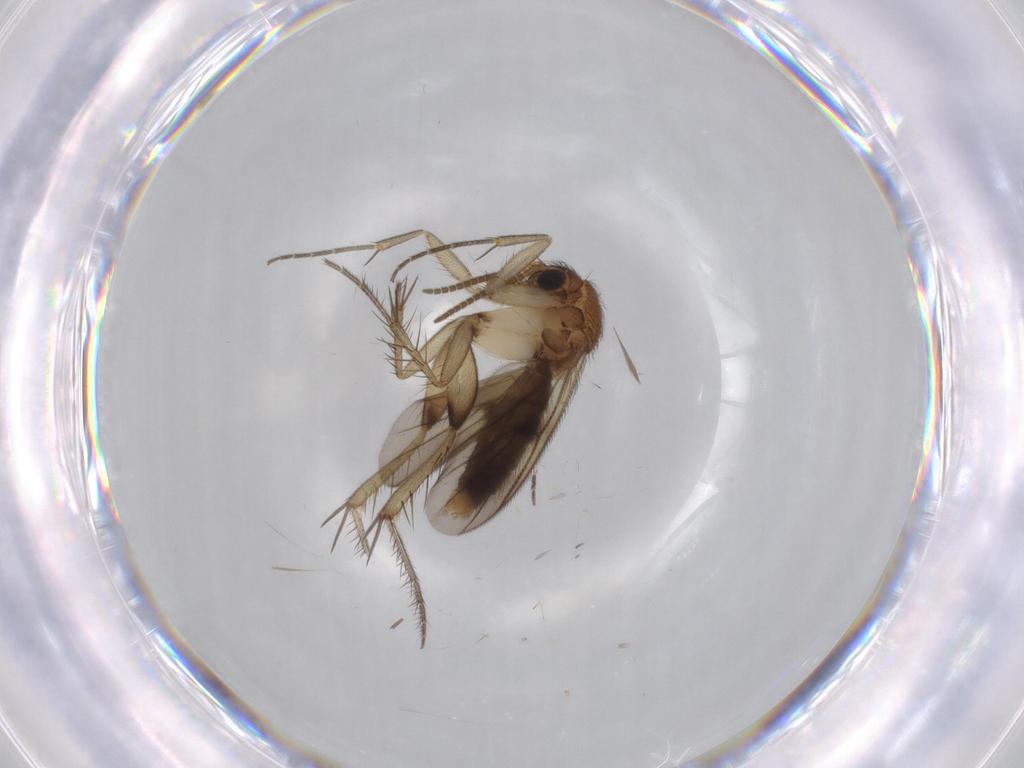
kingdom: Animalia
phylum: Arthropoda
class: Insecta
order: Diptera
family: Mycetophilidae
